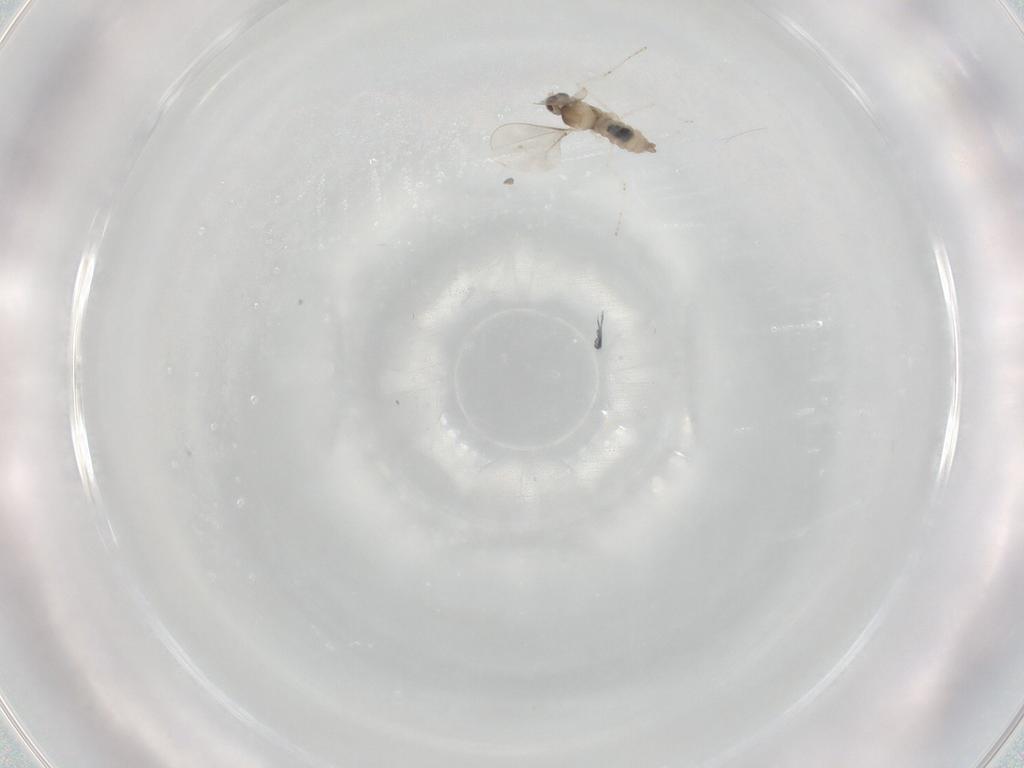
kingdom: Animalia
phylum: Arthropoda
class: Insecta
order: Diptera
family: Cecidomyiidae
